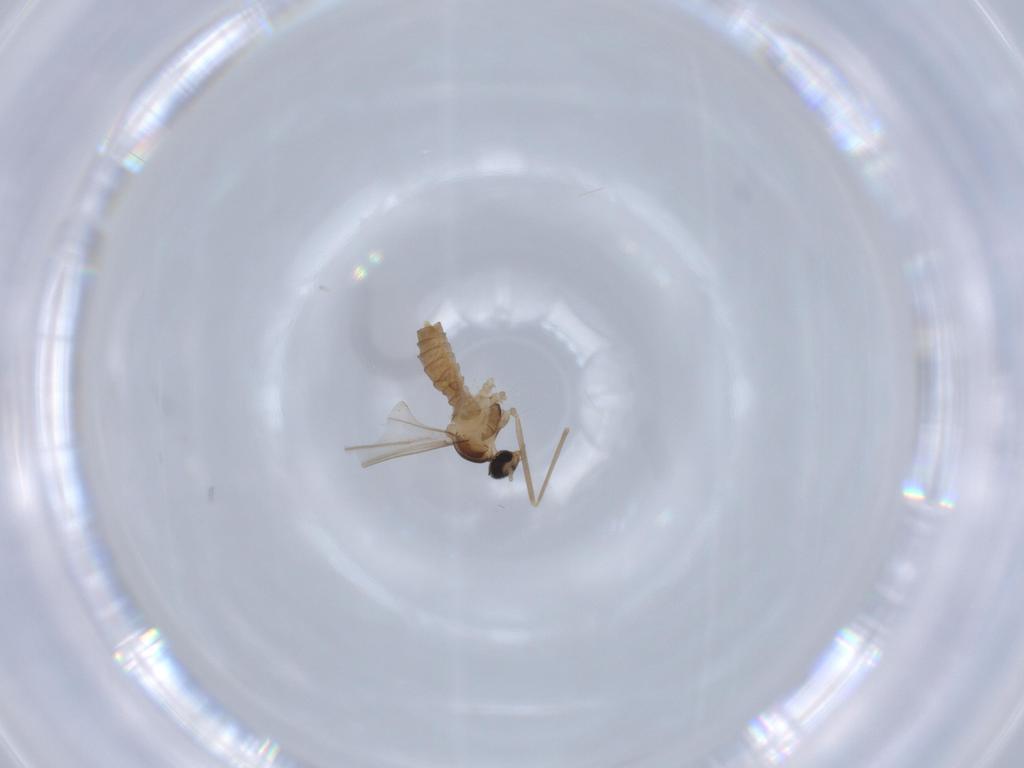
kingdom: Animalia
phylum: Arthropoda
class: Insecta
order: Diptera
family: Cecidomyiidae
